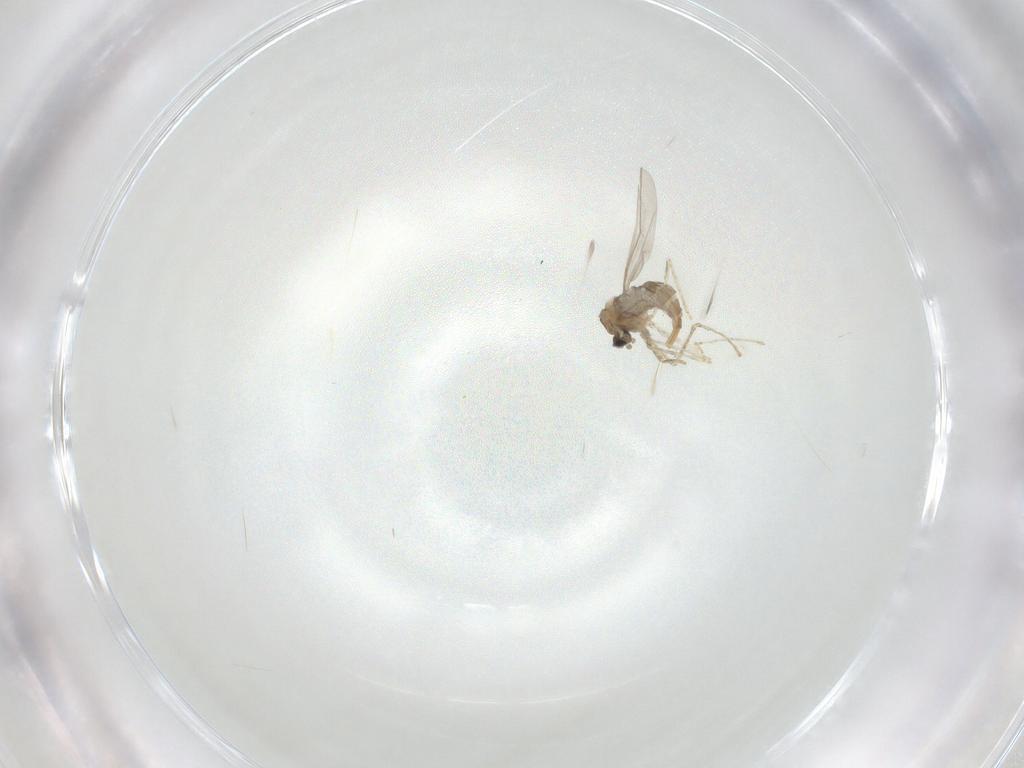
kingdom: Animalia
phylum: Arthropoda
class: Insecta
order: Diptera
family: Cecidomyiidae
